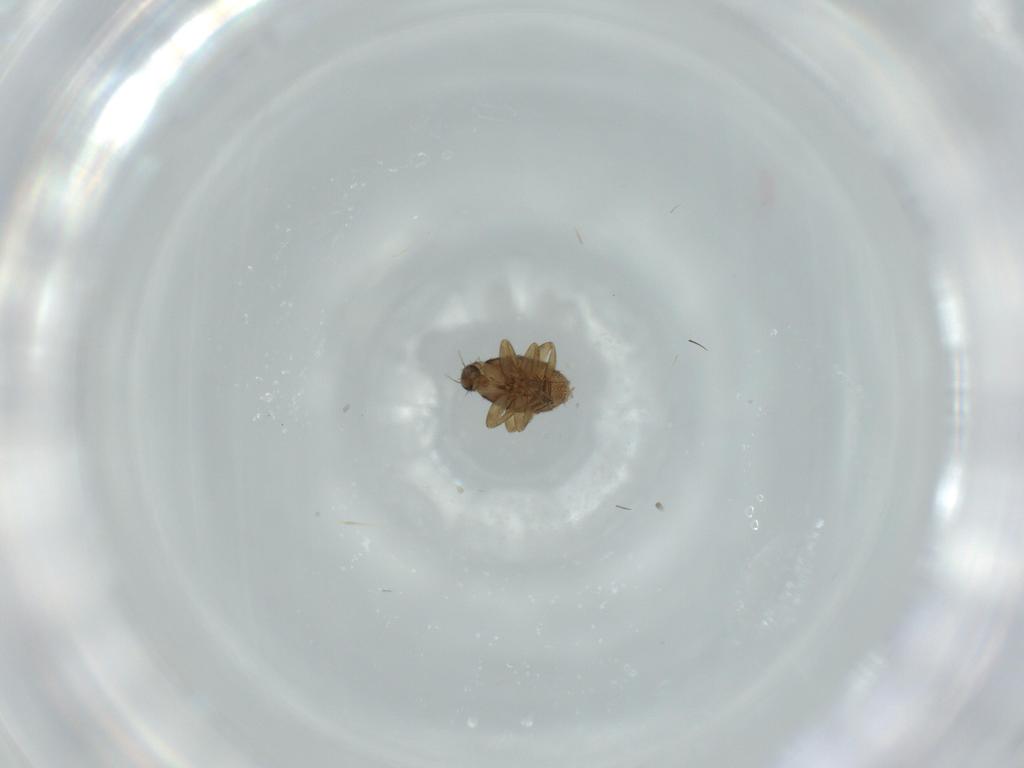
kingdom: Animalia
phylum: Arthropoda
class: Insecta
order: Diptera
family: Phoridae
